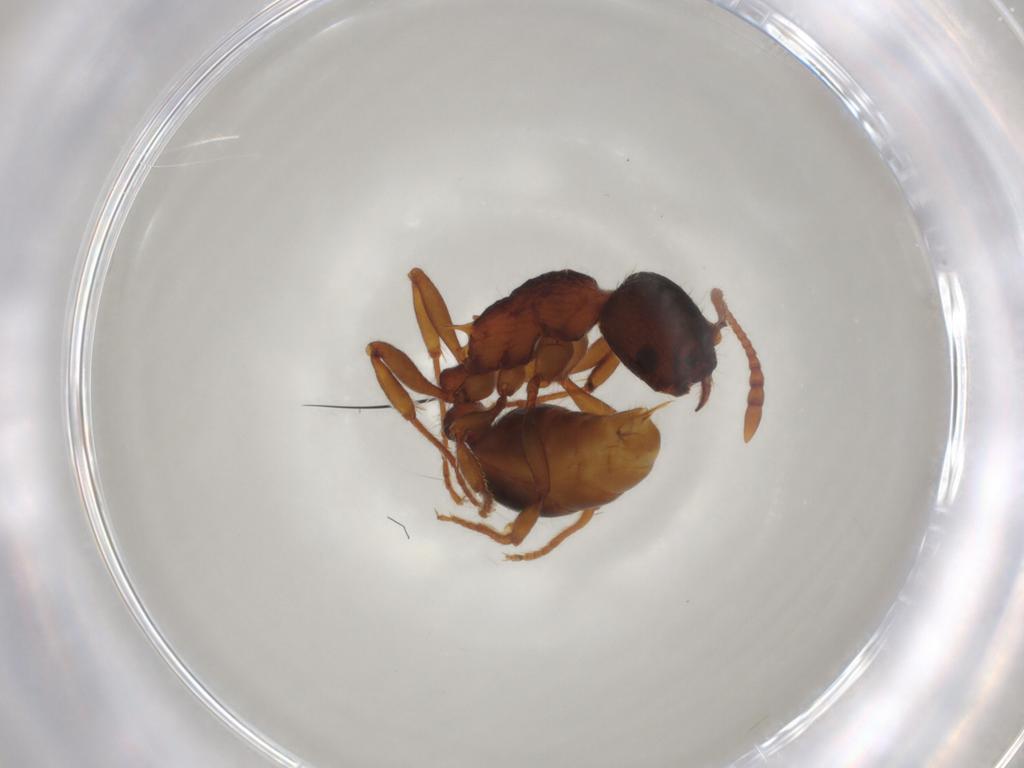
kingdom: Animalia
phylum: Arthropoda
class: Insecta
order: Hymenoptera
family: Formicidae
